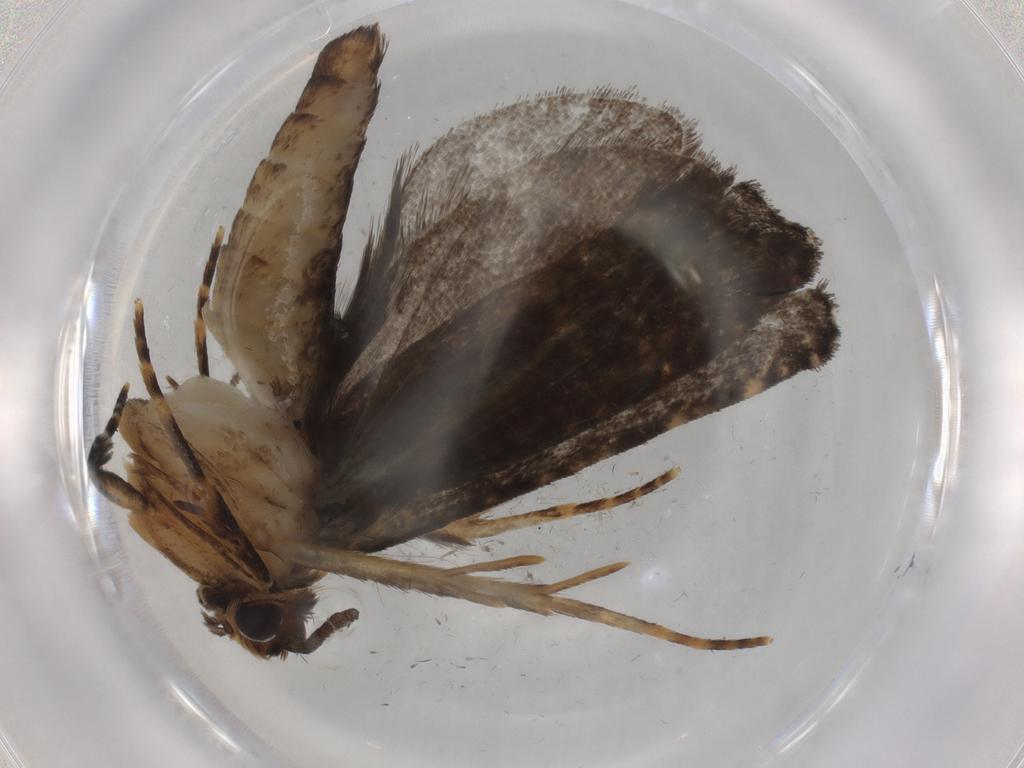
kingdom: Animalia
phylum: Arthropoda
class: Insecta
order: Lepidoptera
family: Tineidae
